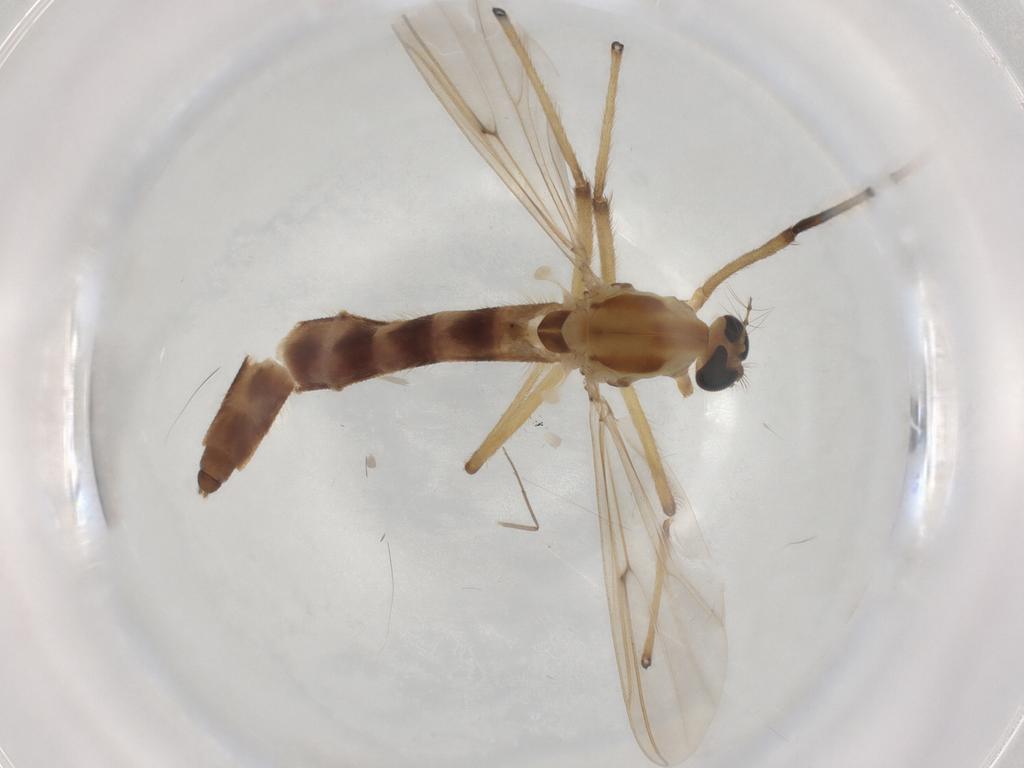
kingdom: Animalia
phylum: Arthropoda
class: Insecta
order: Diptera
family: Chironomidae
